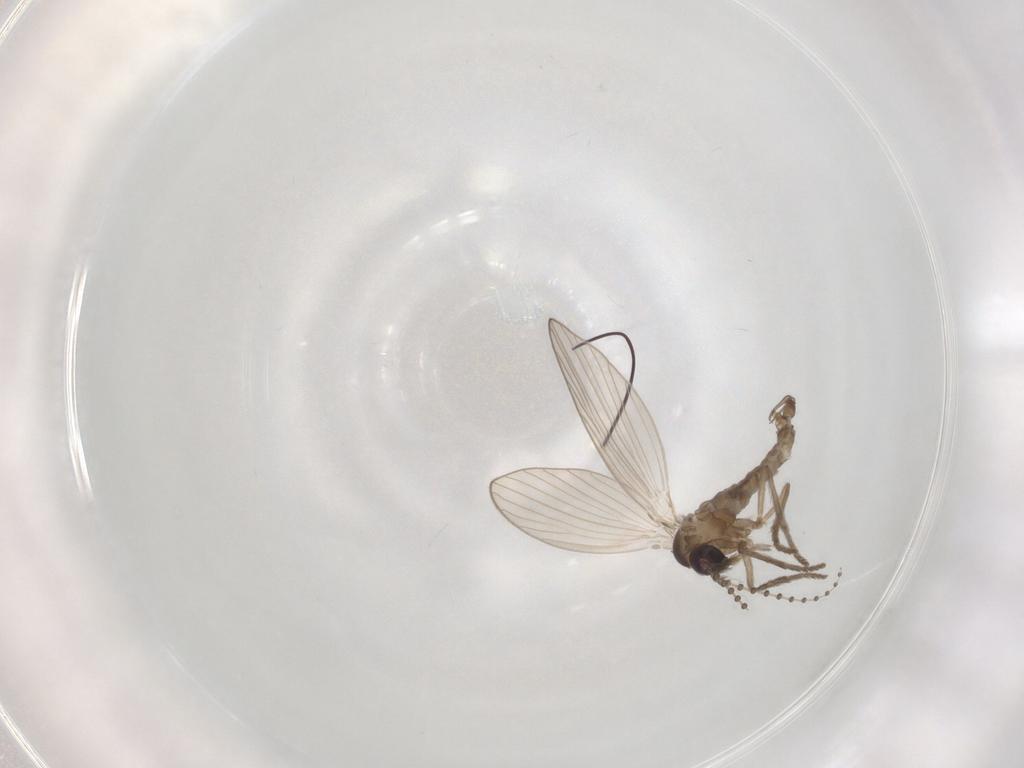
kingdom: Animalia
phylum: Arthropoda
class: Insecta
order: Diptera
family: Psychodidae
